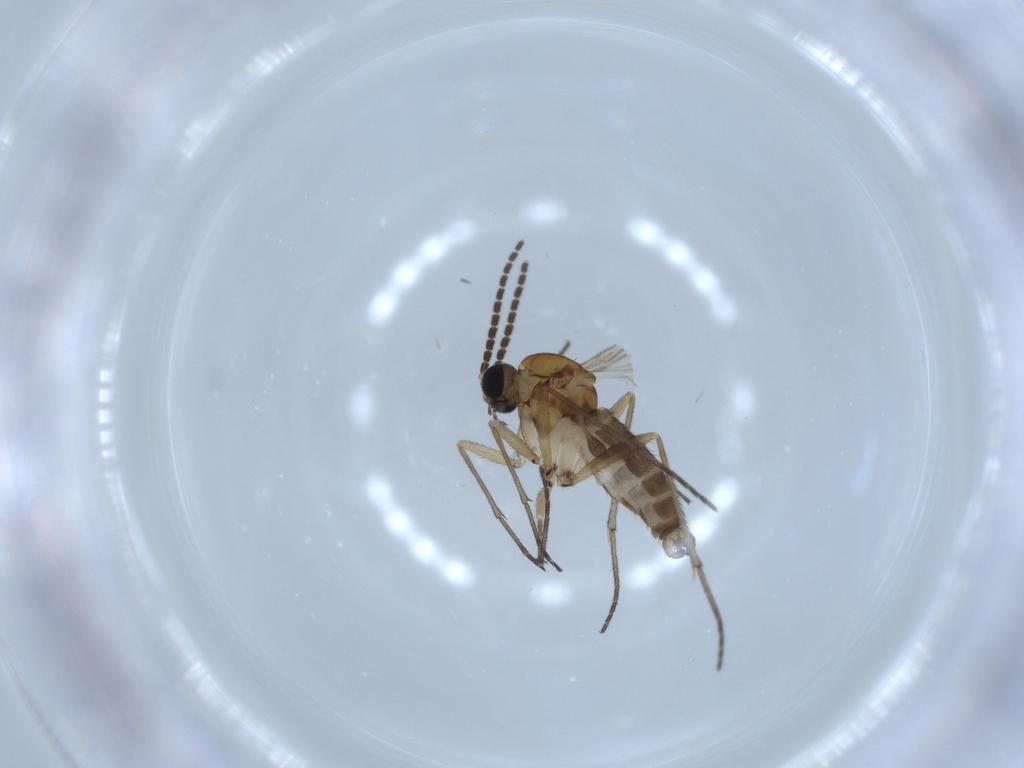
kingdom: Animalia
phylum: Arthropoda
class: Insecta
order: Diptera
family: Sciaridae
